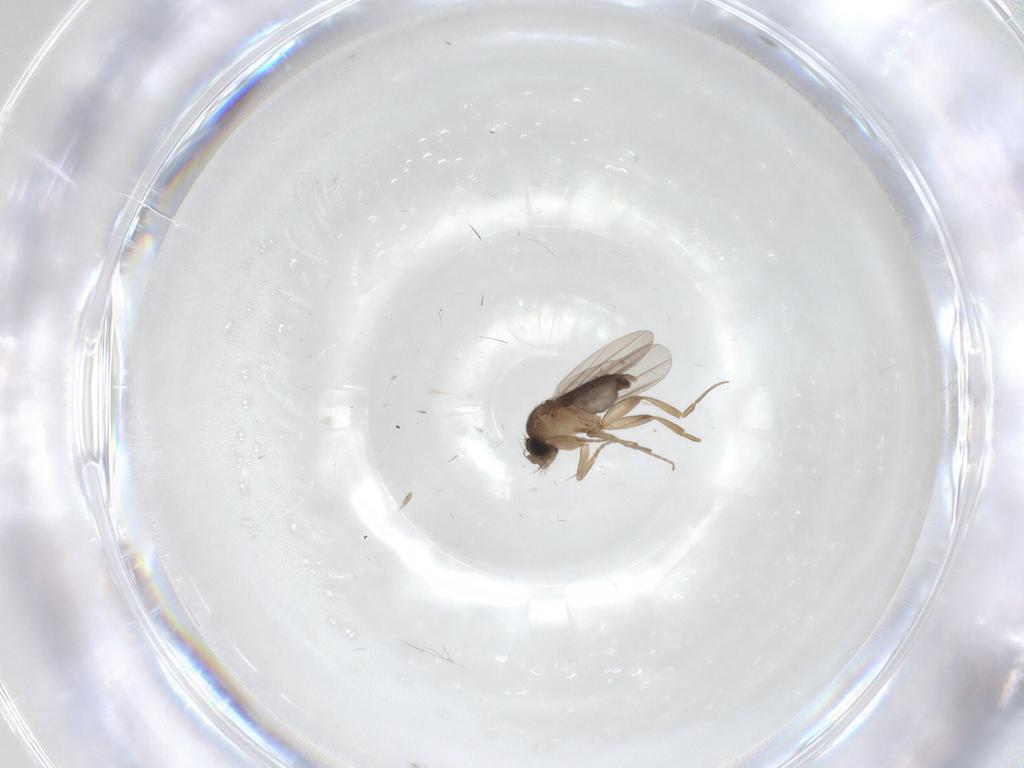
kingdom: Animalia
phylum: Arthropoda
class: Insecta
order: Diptera
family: Phoridae
